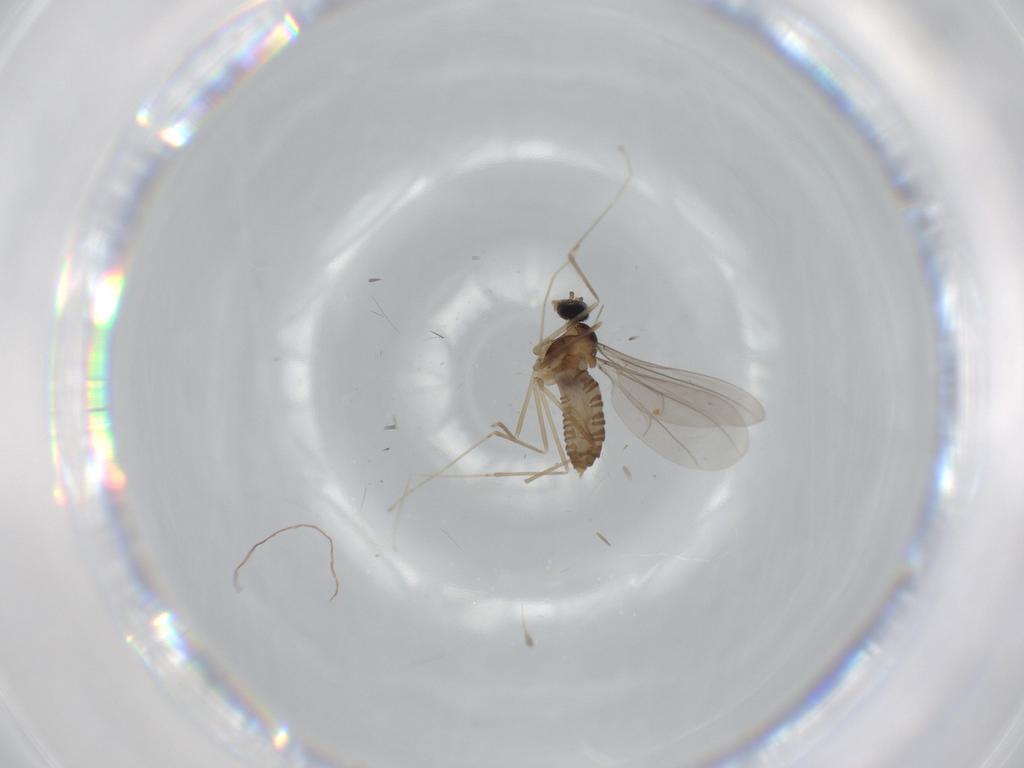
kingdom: Animalia
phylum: Arthropoda
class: Insecta
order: Diptera
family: Cecidomyiidae
